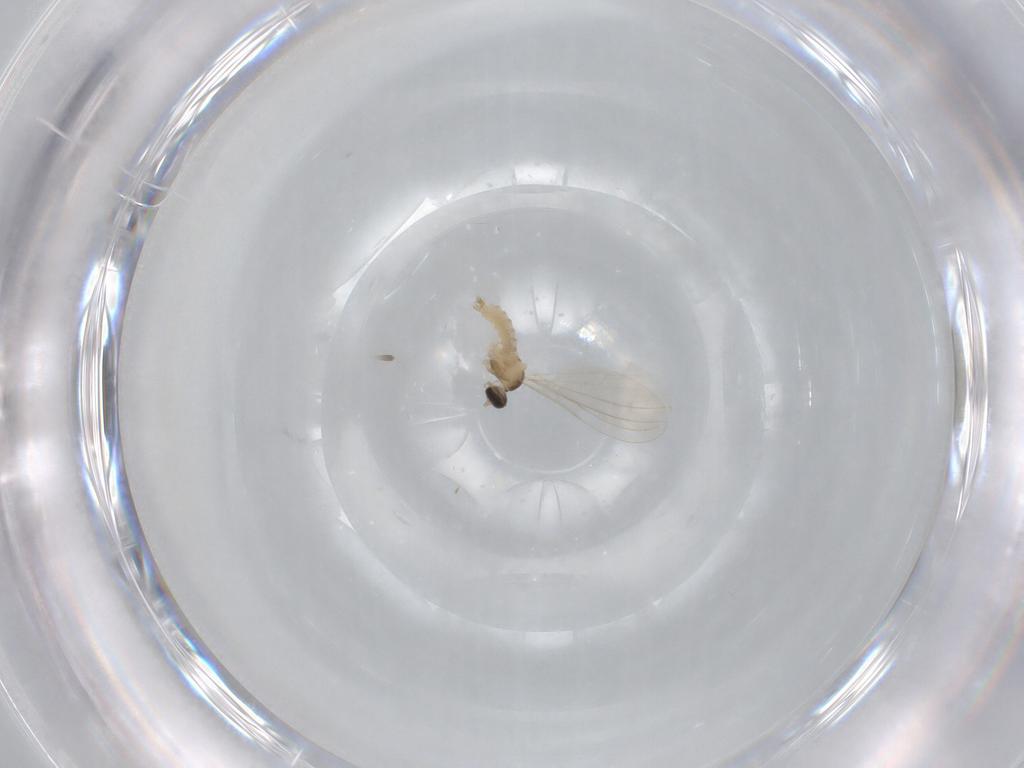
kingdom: Animalia
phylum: Arthropoda
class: Insecta
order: Diptera
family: Cecidomyiidae
